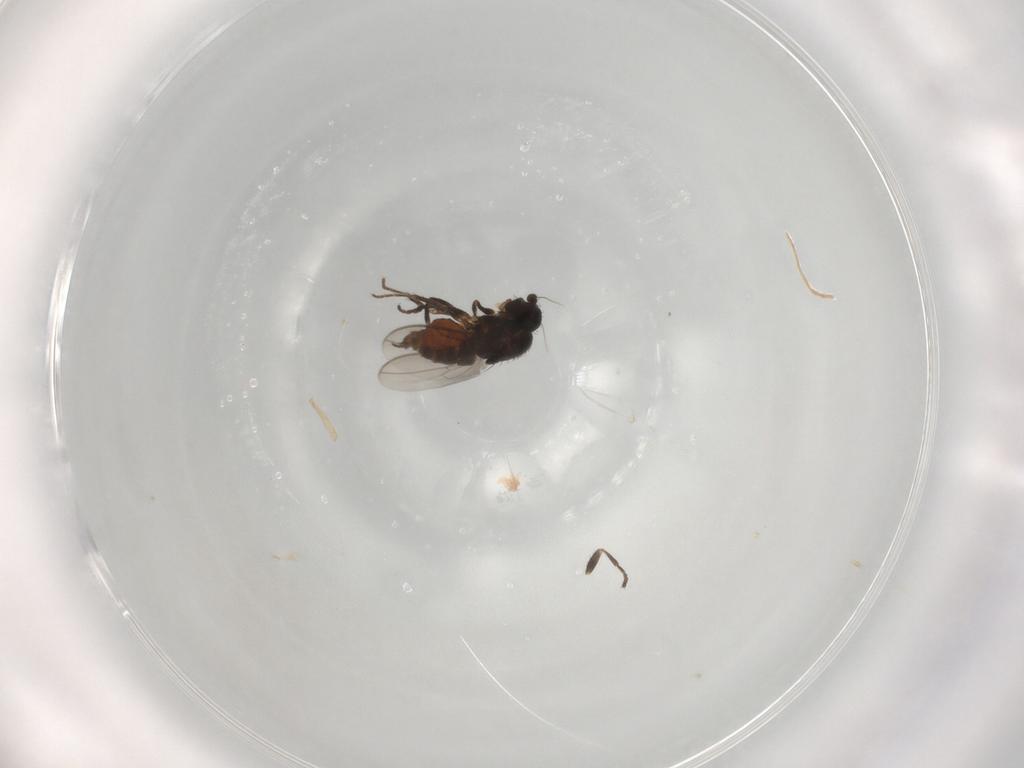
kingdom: Animalia
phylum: Arthropoda
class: Insecta
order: Diptera
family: Sphaeroceridae
